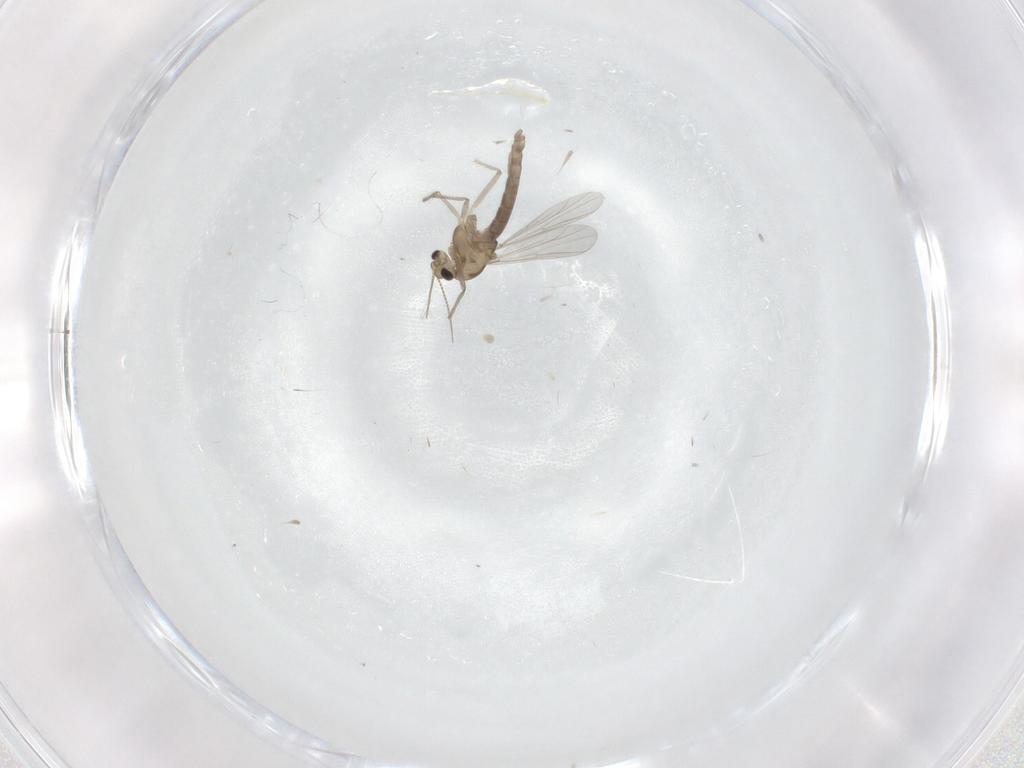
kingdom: Animalia
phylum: Arthropoda
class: Insecta
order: Diptera
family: Chironomidae
